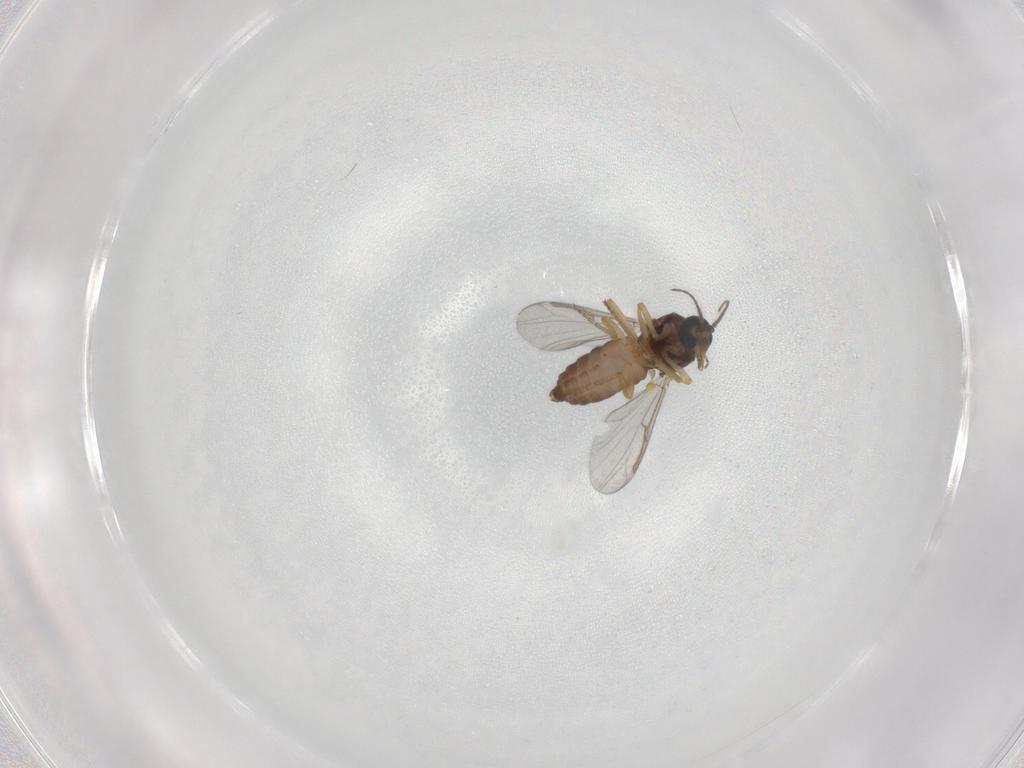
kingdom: Animalia
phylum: Arthropoda
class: Insecta
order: Diptera
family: Ceratopogonidae
